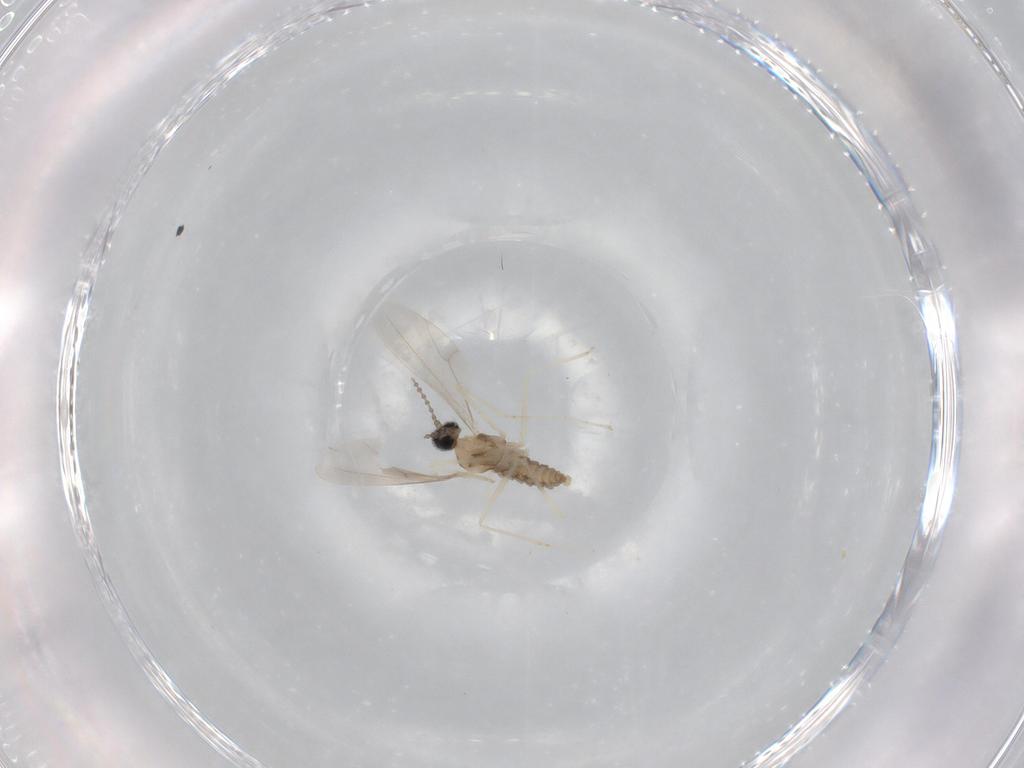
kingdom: Animalia
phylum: Arthropoda
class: Insecta
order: Diptera
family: Cecidomyiidae
